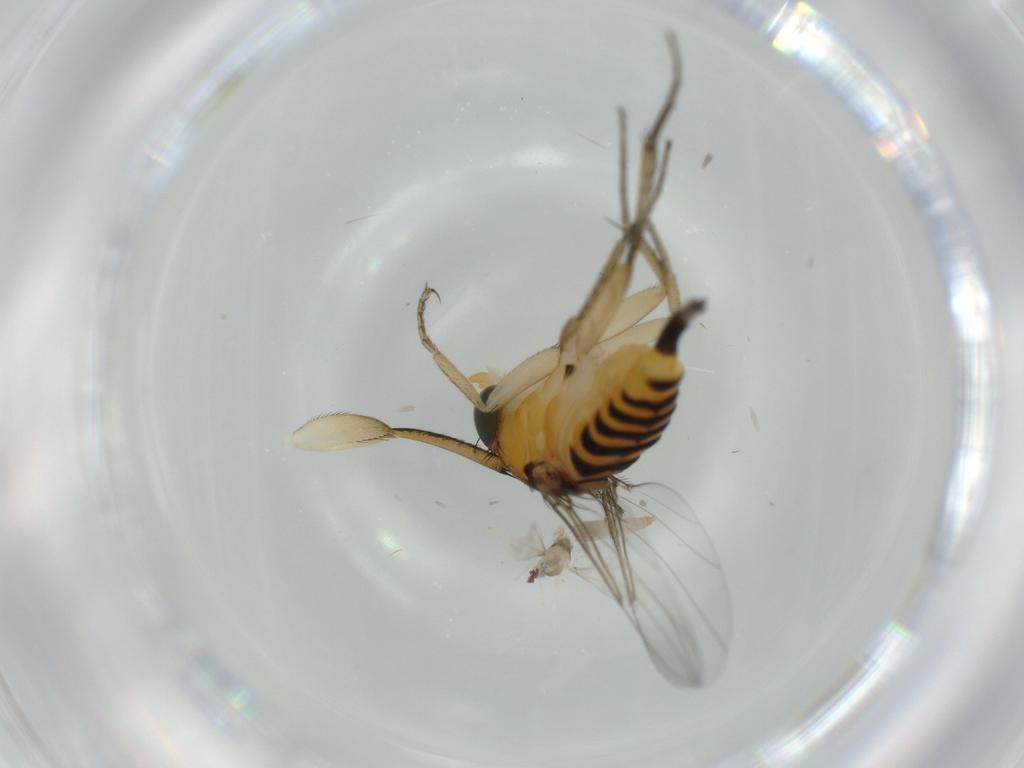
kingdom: Animalia
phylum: Arthropoda
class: Insecta
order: Diptera
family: Phoridae
